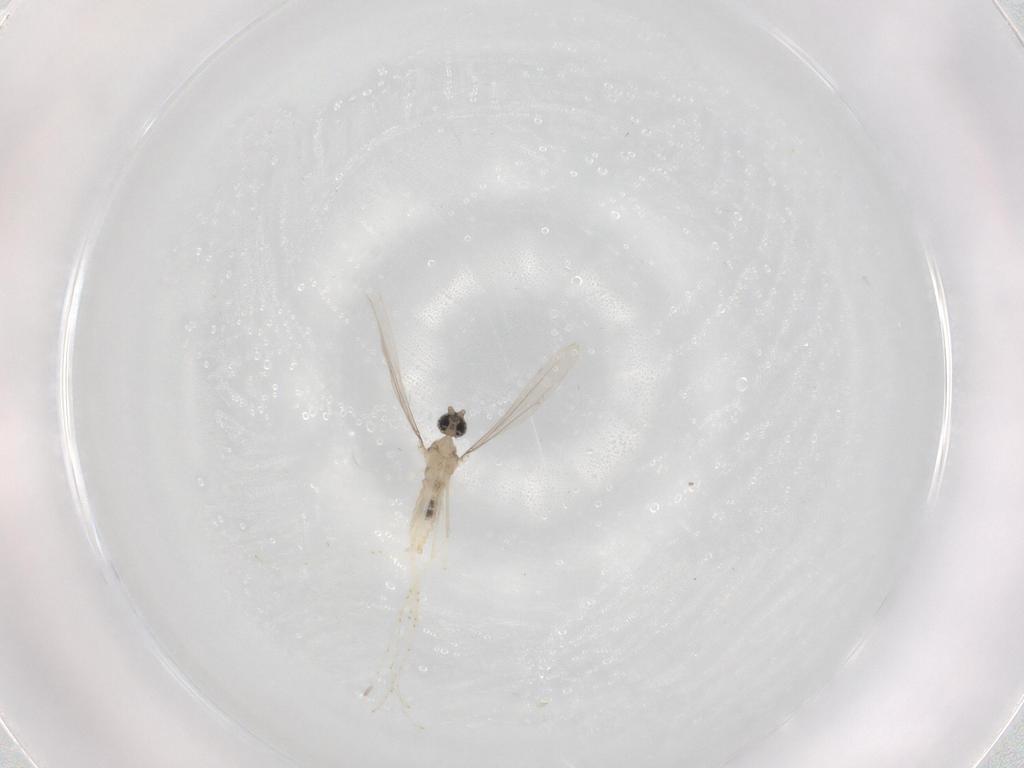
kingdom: Animalia
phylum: Arthropoda
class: Insecta
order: Diptera
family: Cecidomyiidae
